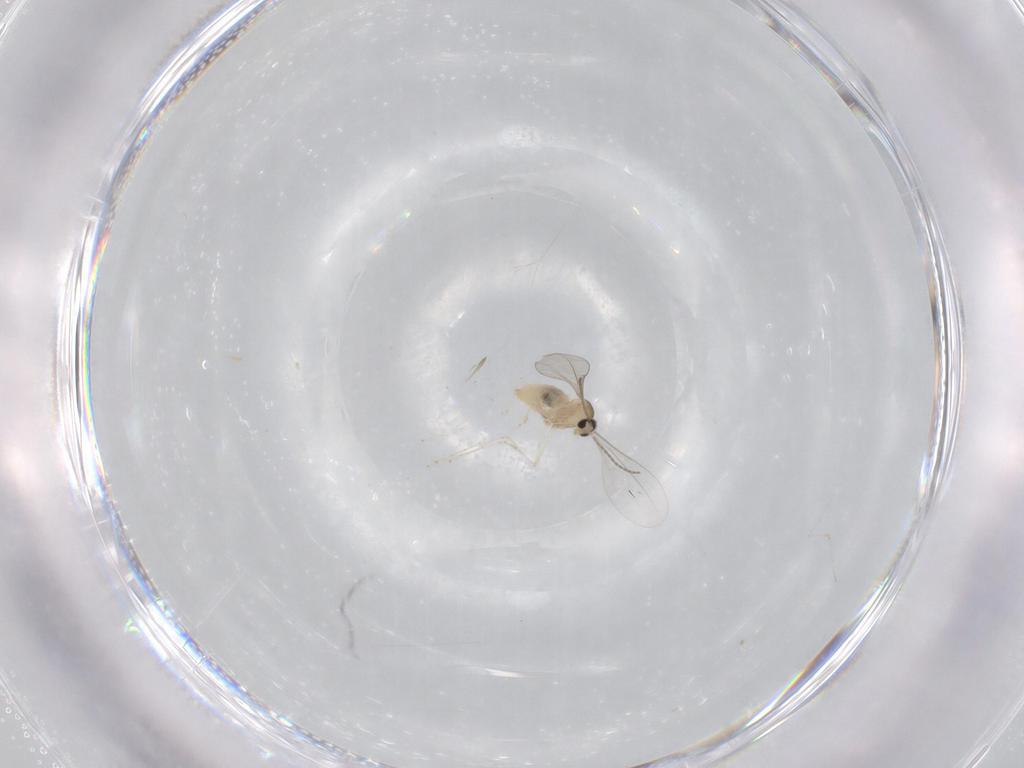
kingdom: Animalia
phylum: Arthropoda
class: Insecta
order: Diptera
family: Cecidomyiidae
